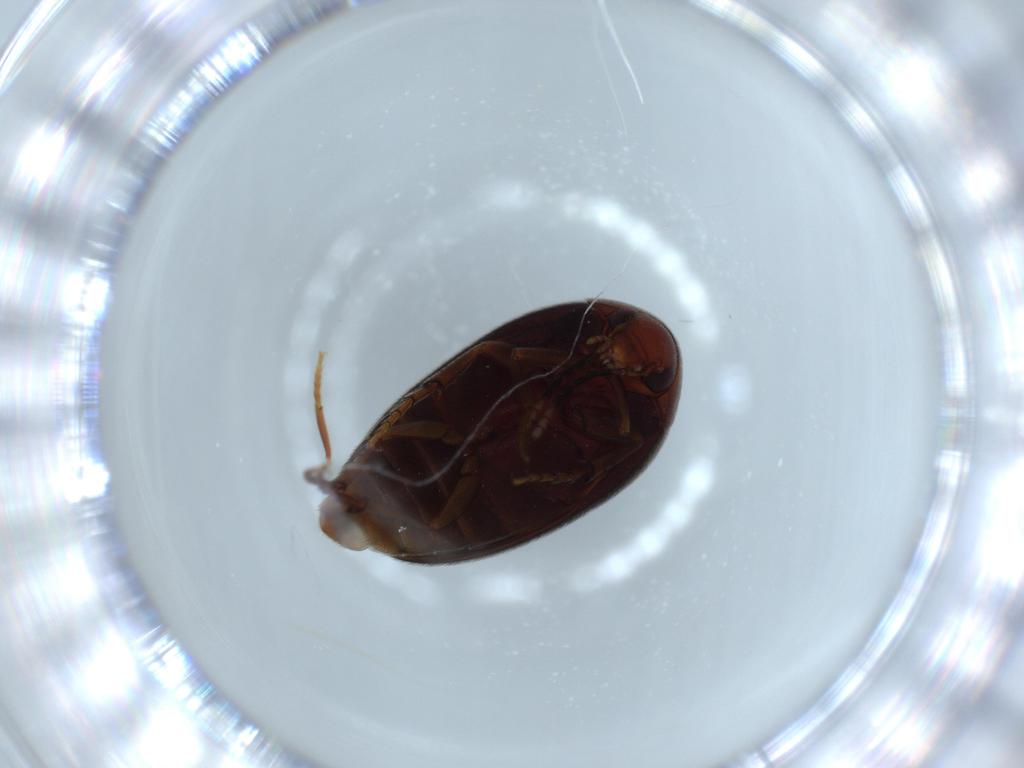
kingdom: Animalia
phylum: Arthropoda
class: Insecta
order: Coleoptera
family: Eucinetidae
